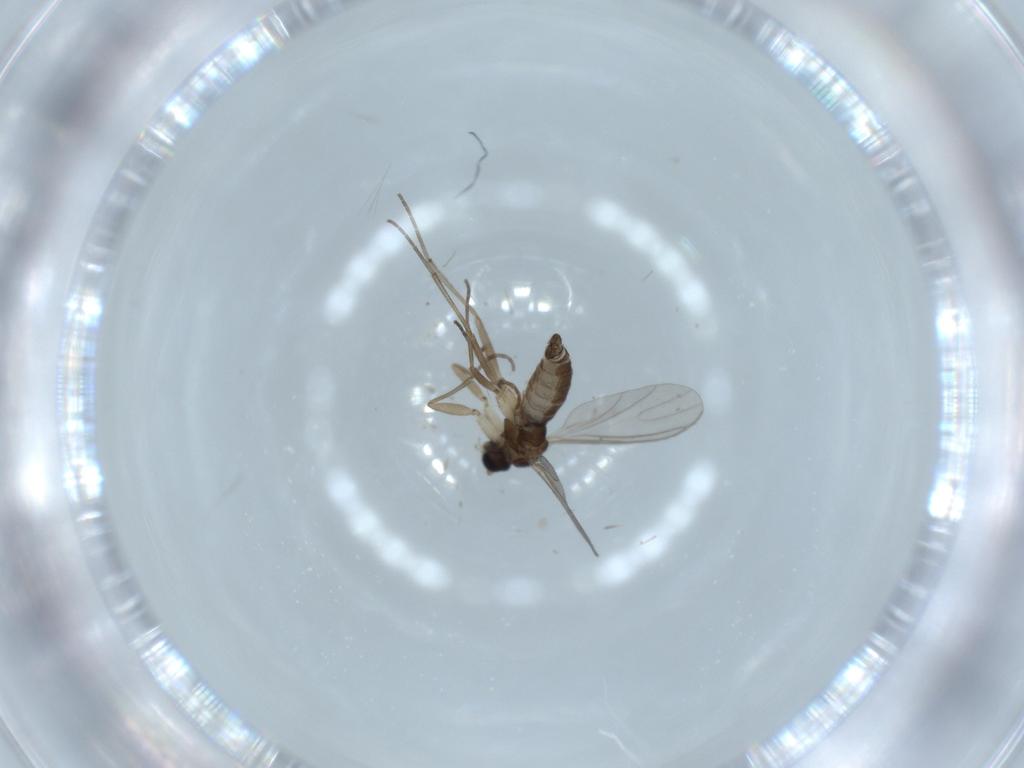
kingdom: Animalia
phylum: Arthropoda
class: Insecta
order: Diptera
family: Sciaridae
